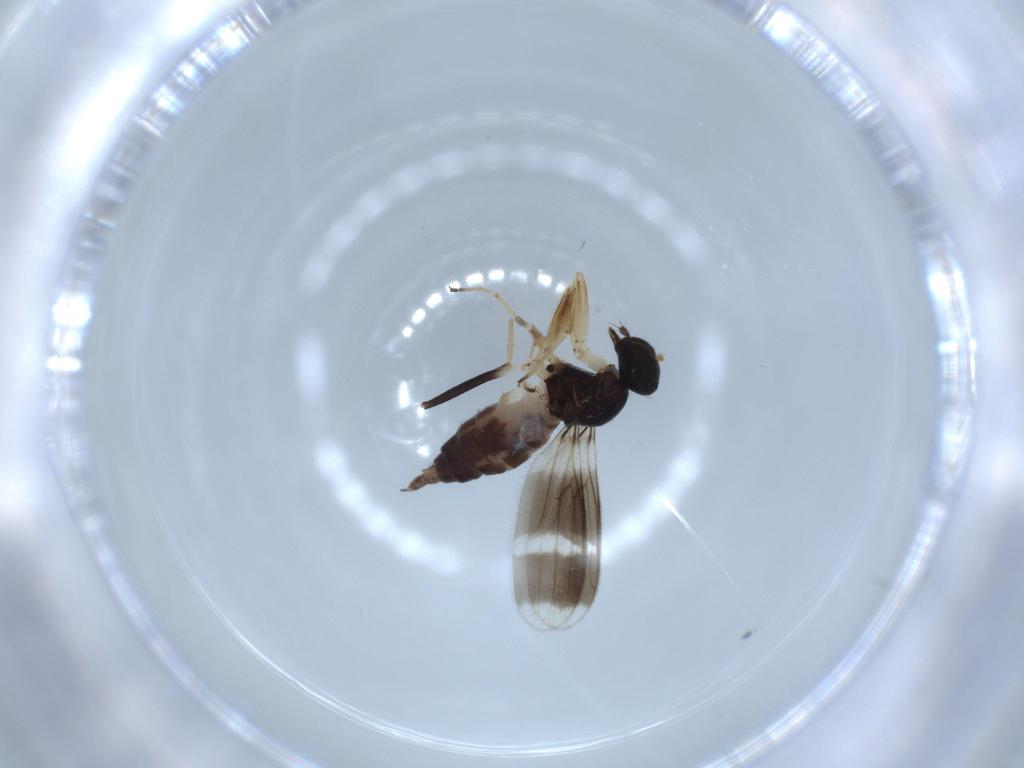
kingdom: Animalia
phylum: Arthropoda
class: Insecta
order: Diptera
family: Hybotidae
